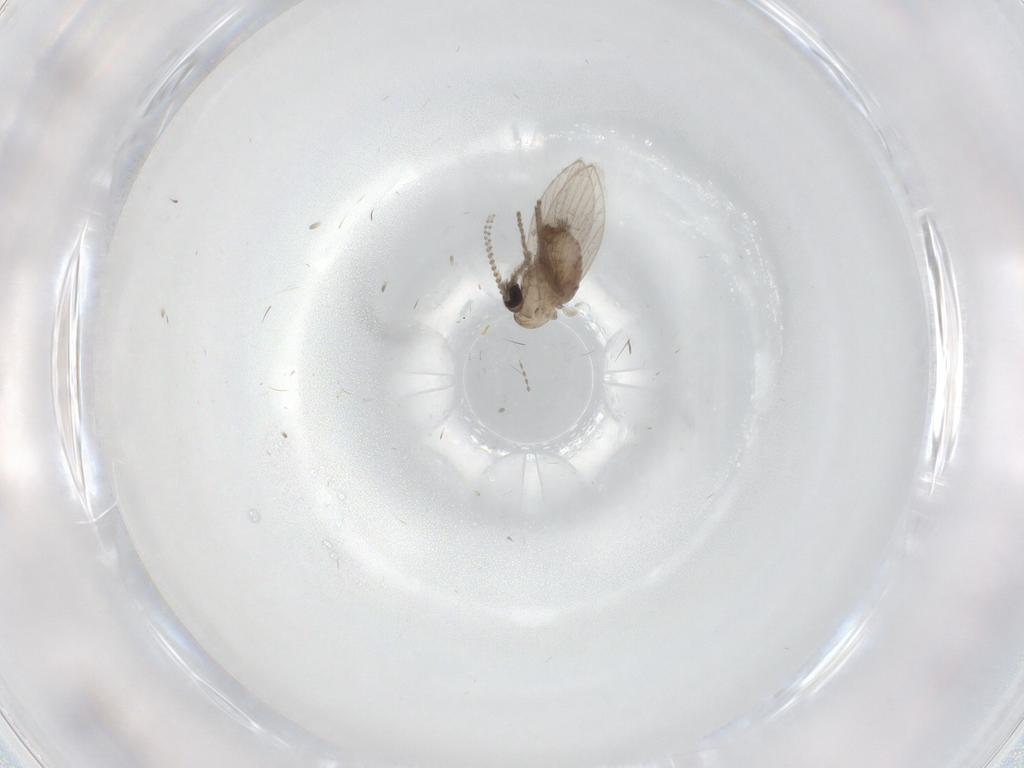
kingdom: Animalia
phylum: Arthropoda
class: Insecta
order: Diptera
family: Psychodidae
